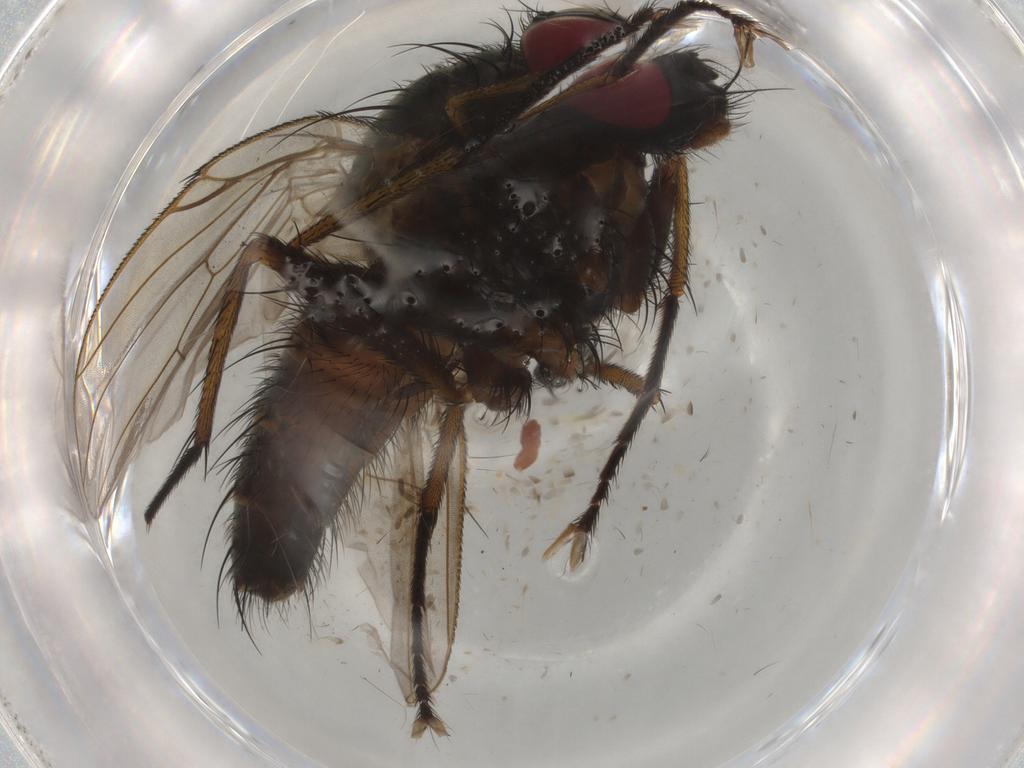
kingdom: Animalia
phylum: Arthropoda
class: Insecta
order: Diptera
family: Muscidae
